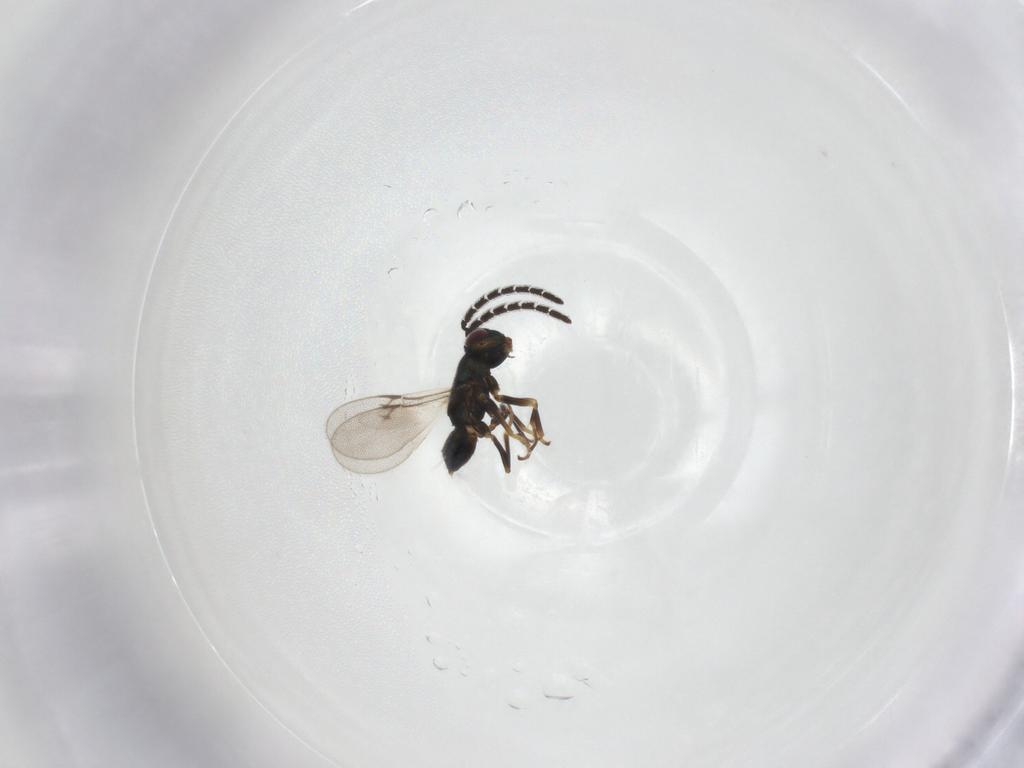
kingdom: Animalia
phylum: Arthropoda
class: Insecta
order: Hymenoptera
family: Encyrtidae
